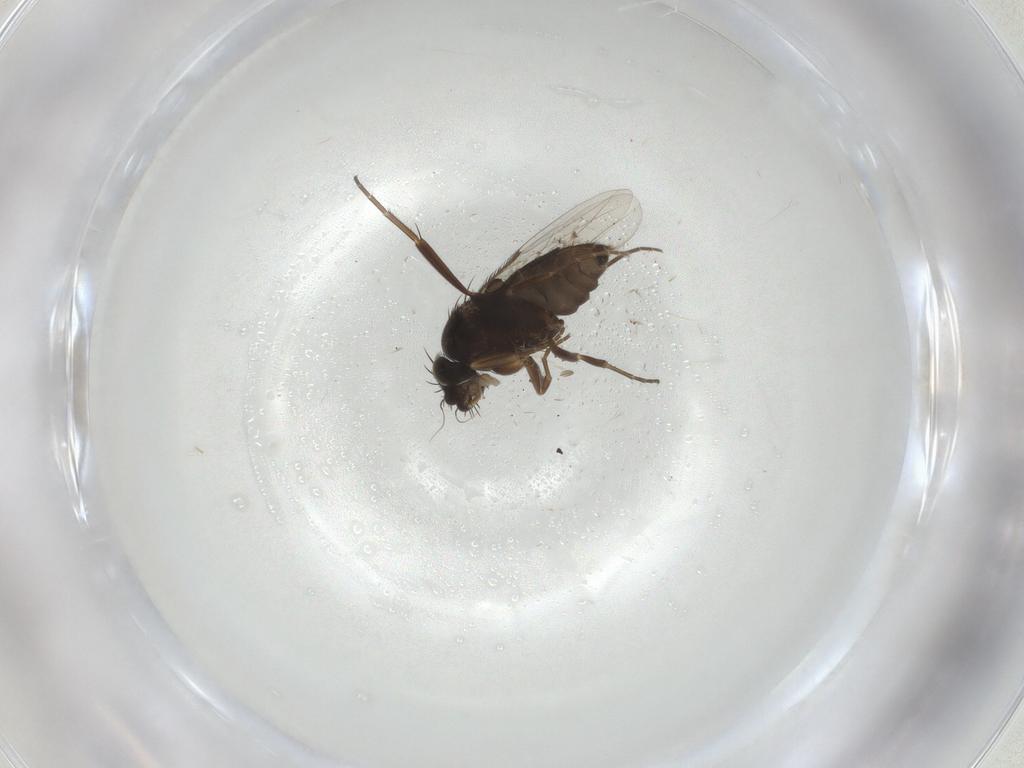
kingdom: Animalia
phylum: Arthropoda
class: Insecta
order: Diptera
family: Phoridae
